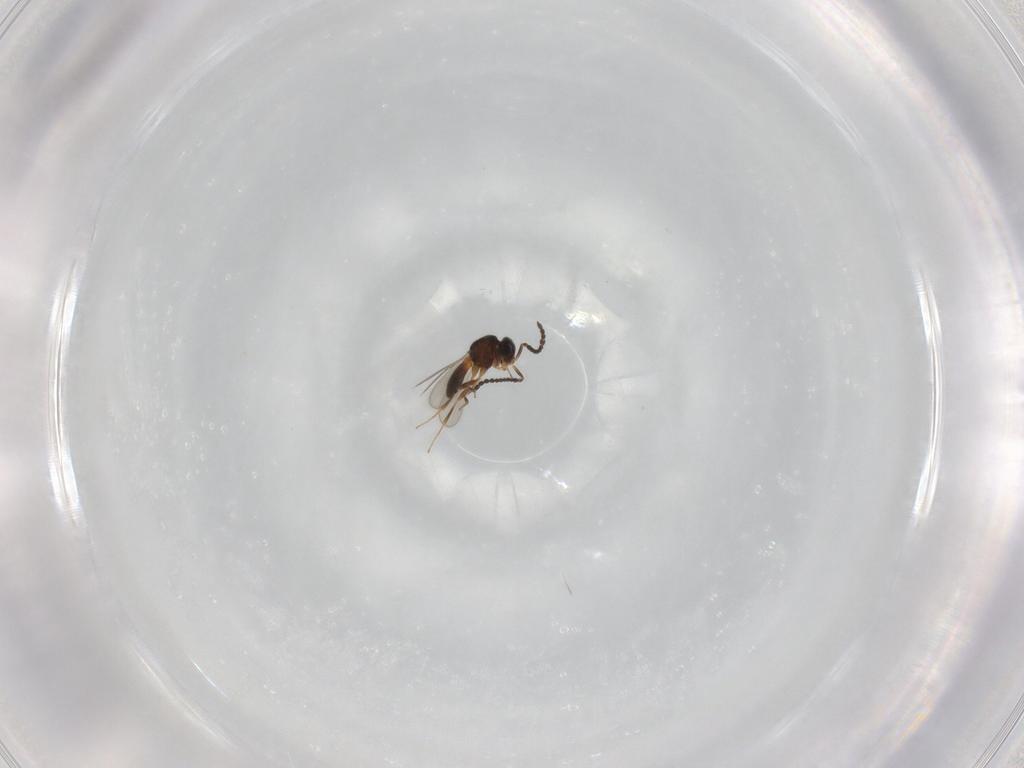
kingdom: Animalia
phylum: Arthropoda
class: Insecta
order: Hymenoptera
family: Scelionidae
